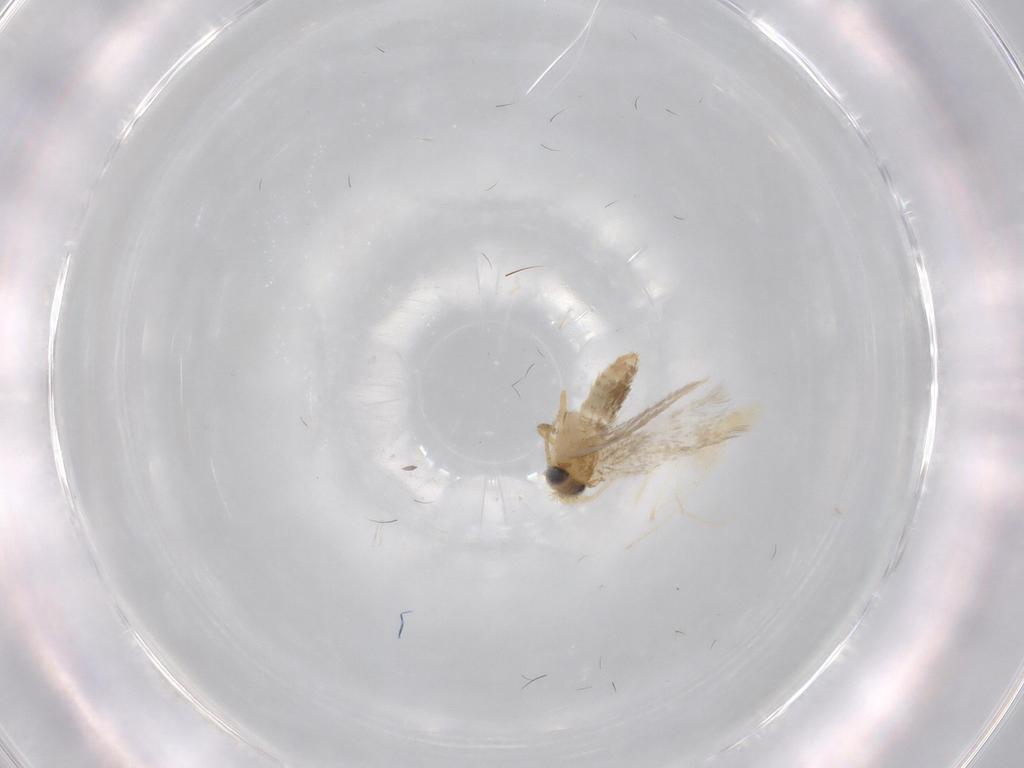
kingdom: Animalia
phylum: Arthropoda
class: Insecta
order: Lepidoptera
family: Nepticulidae
